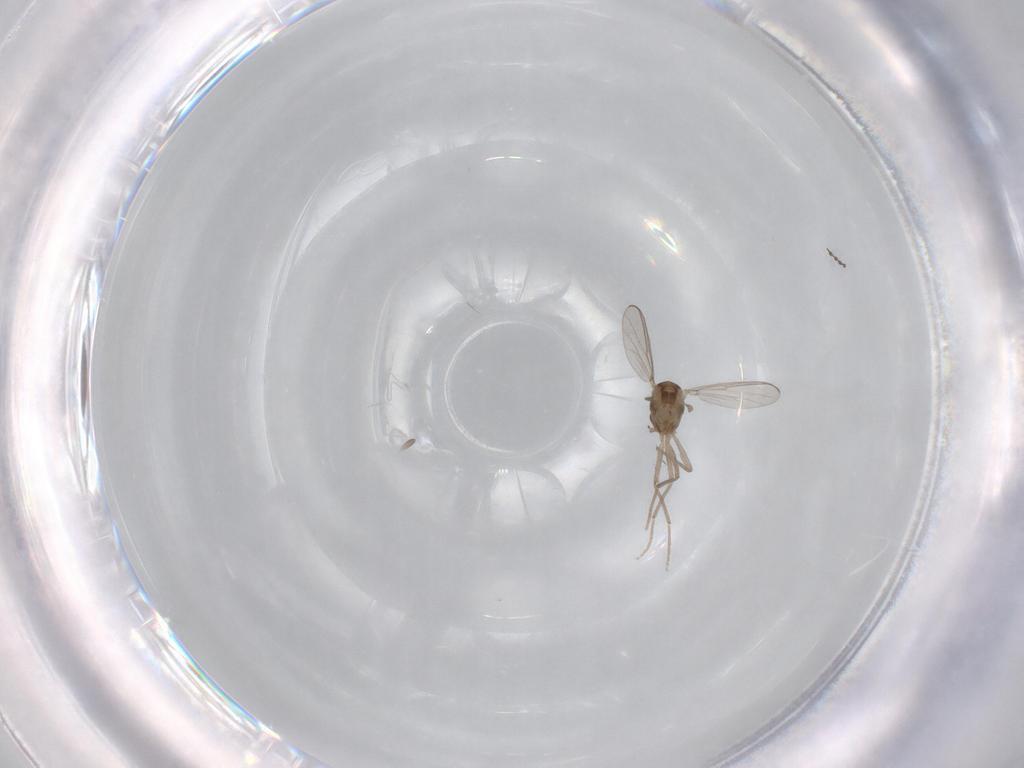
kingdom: Animalia
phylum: Arthropoda
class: Insecta
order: Diptera
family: Chironomidae
